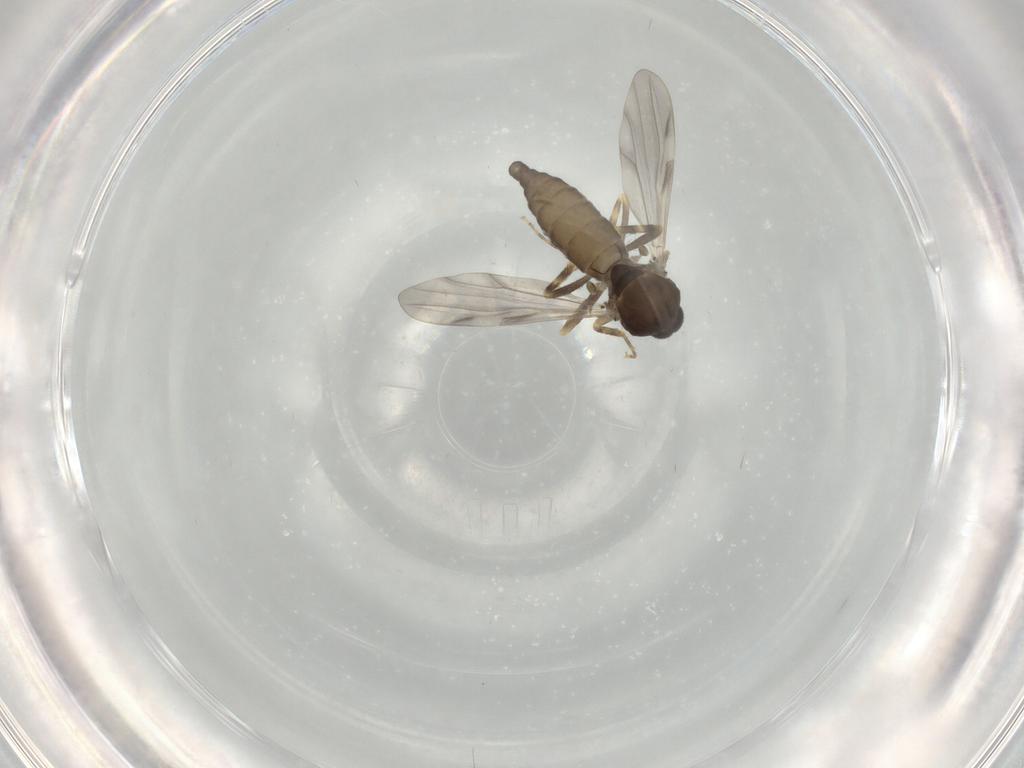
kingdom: Animalia
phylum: Arthropoda
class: Insecta
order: Diptera
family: Ceratopogonidae
